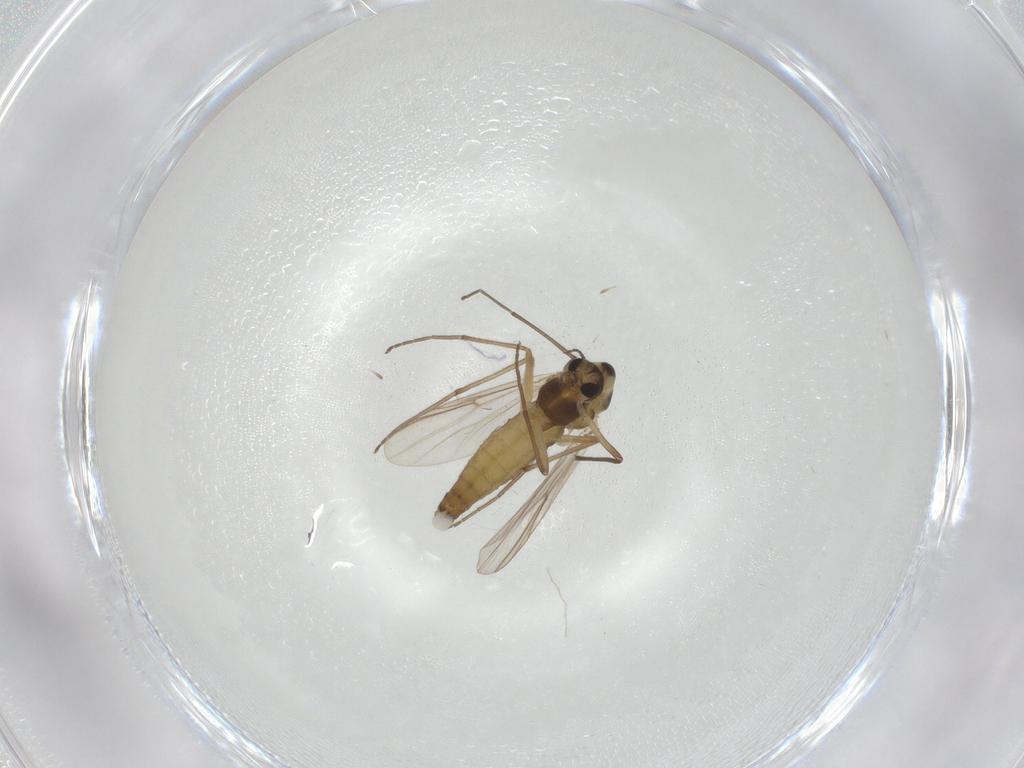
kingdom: Animalia
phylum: Arthropoda
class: Insecta
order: Diptera
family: Chironomidae
